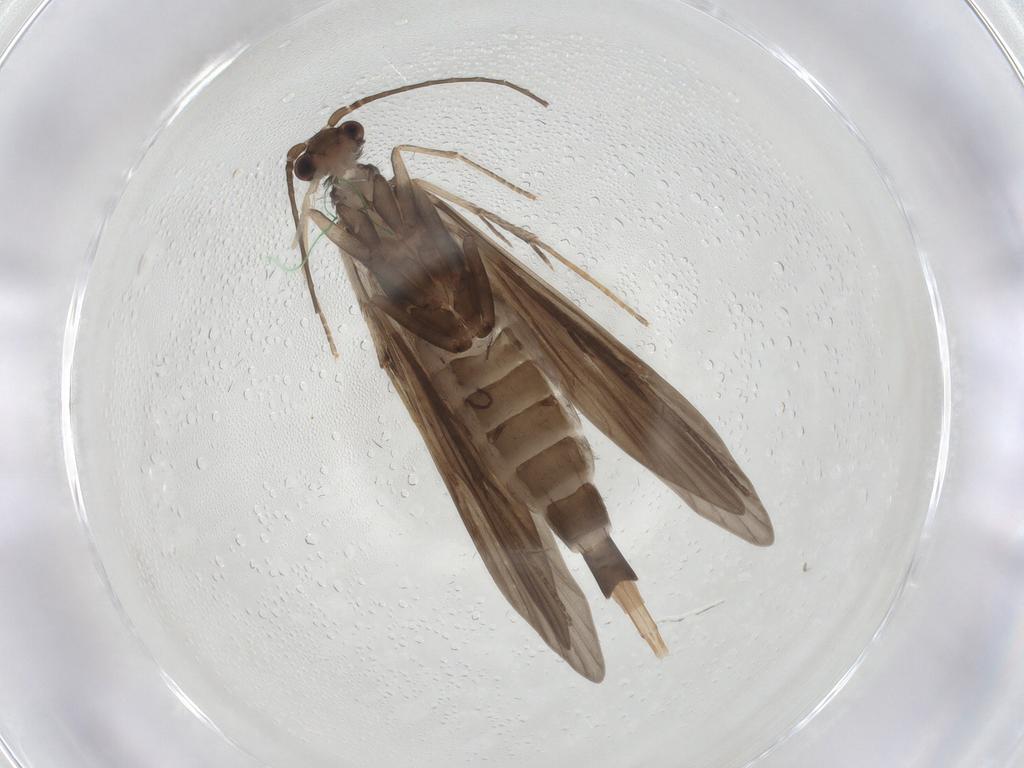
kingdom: Animalia
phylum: Arthropoda
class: Insecta
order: Trichoptera
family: Xiphocentronidae
